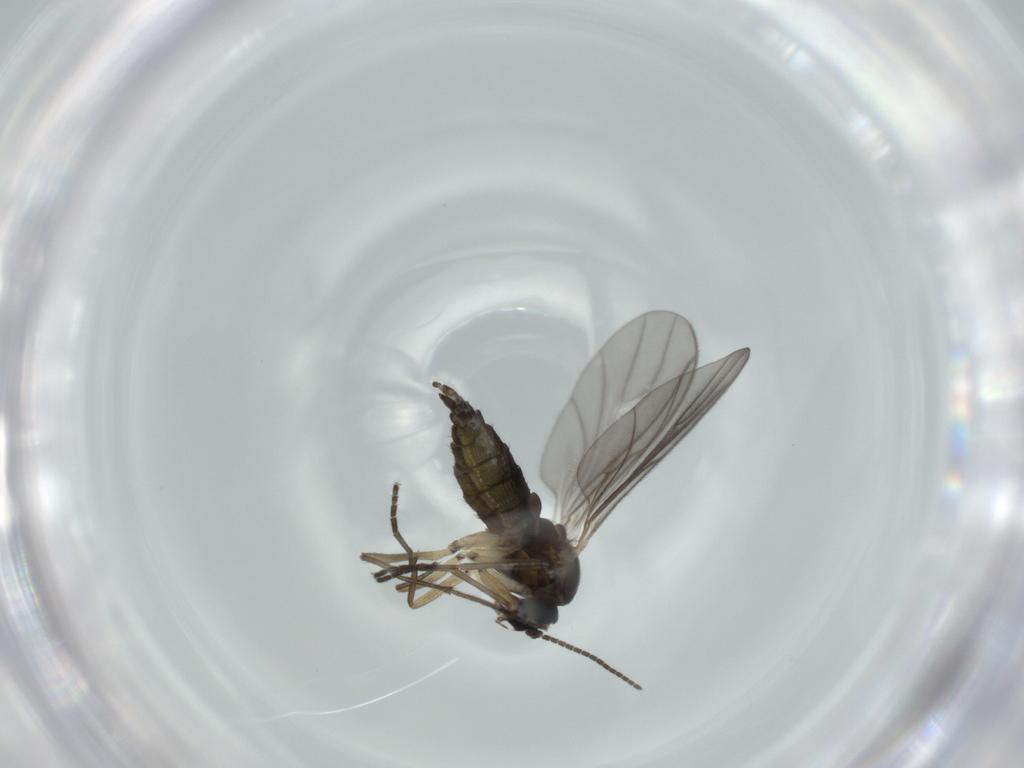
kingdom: Animalia
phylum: Arthropoda
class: Insecta
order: Diptera
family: Sciaridae
